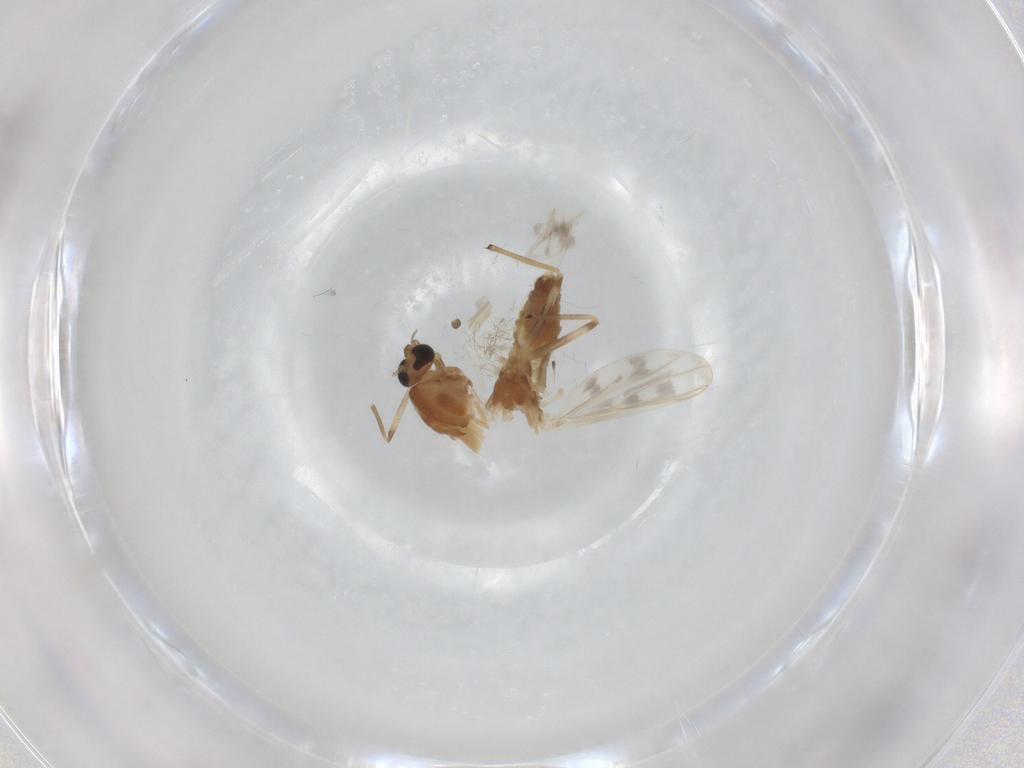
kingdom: Animalia
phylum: Arthropoda
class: Insecta
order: Diptera
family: Chironomidae
